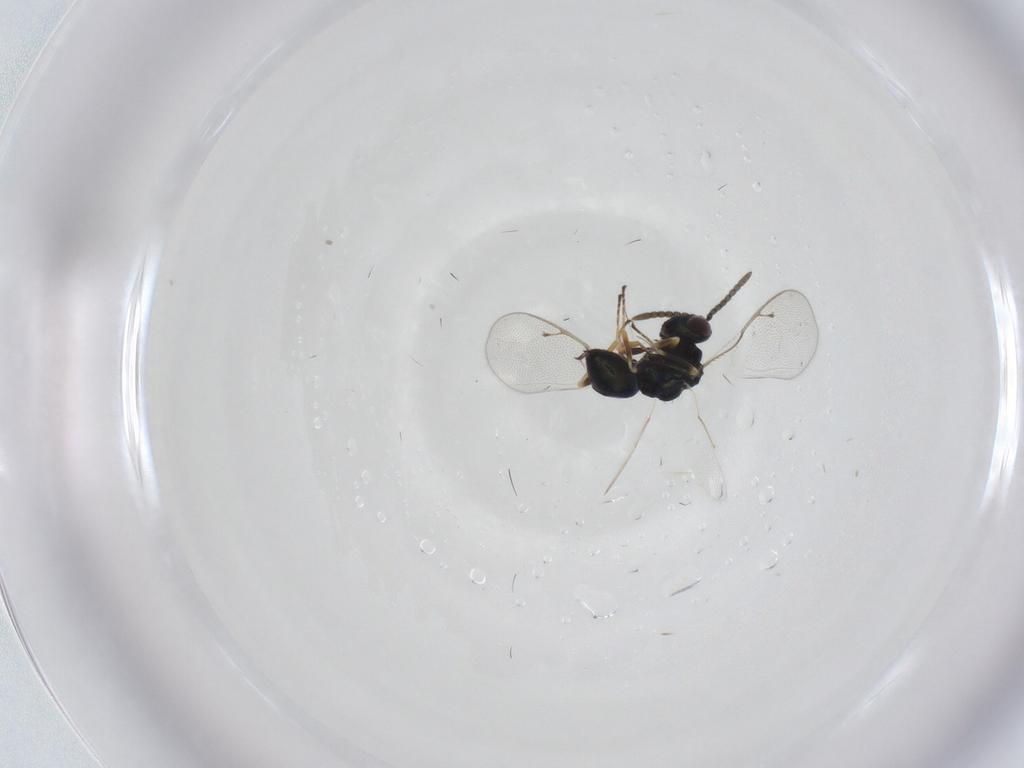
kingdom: Animalia
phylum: Arthropoda
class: Insecta
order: Hymenoptera
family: Pteromalidae
